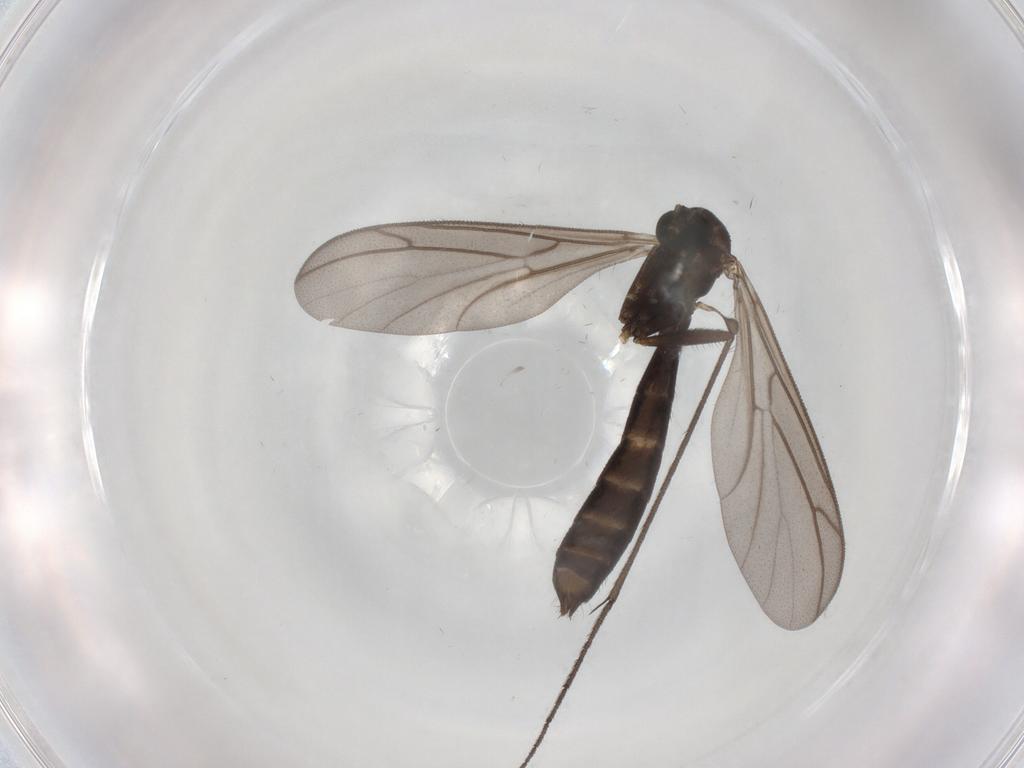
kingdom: Animalia
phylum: Arthropoda
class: Insecta
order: Diptera
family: Keroplatidae
